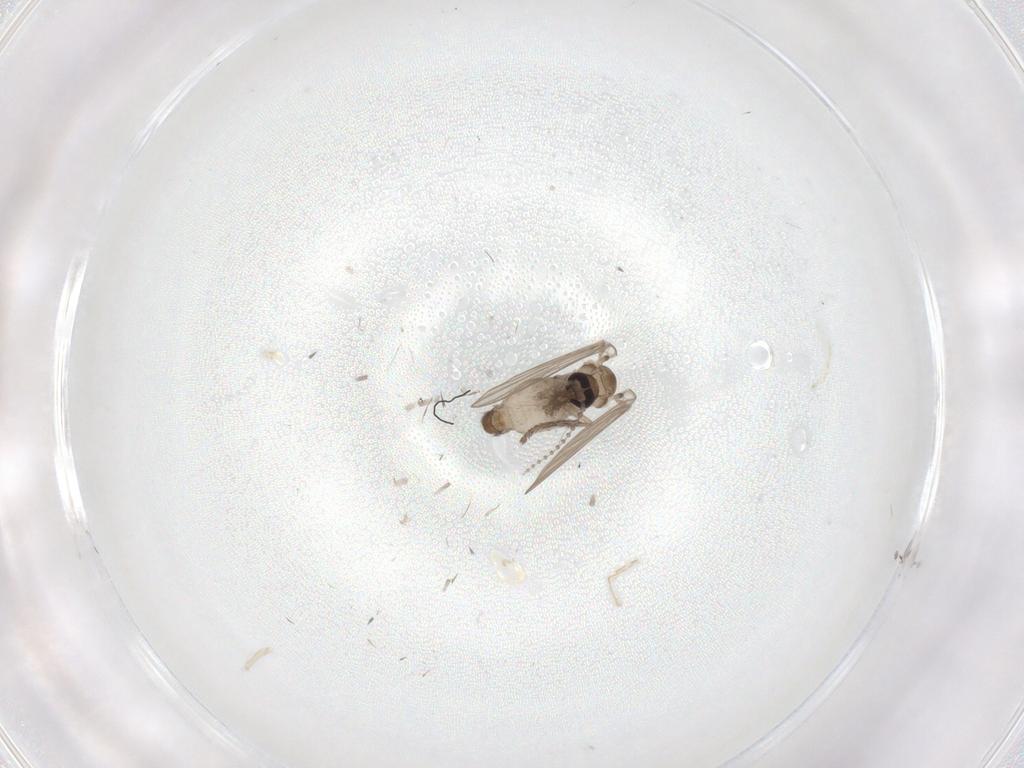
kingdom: Animalia
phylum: Arthropoda
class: Insecta
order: Diptera
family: Psychodidae
